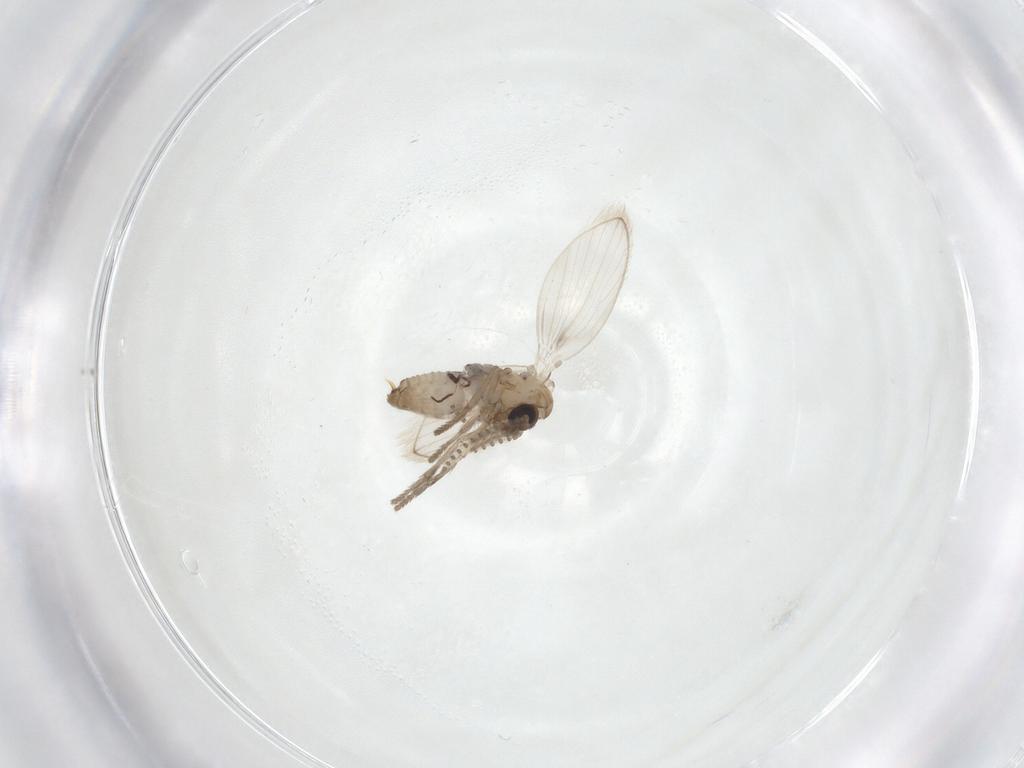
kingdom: Animalia
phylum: Arthropoda
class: Insecta
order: Diptera
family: Psychodidae
